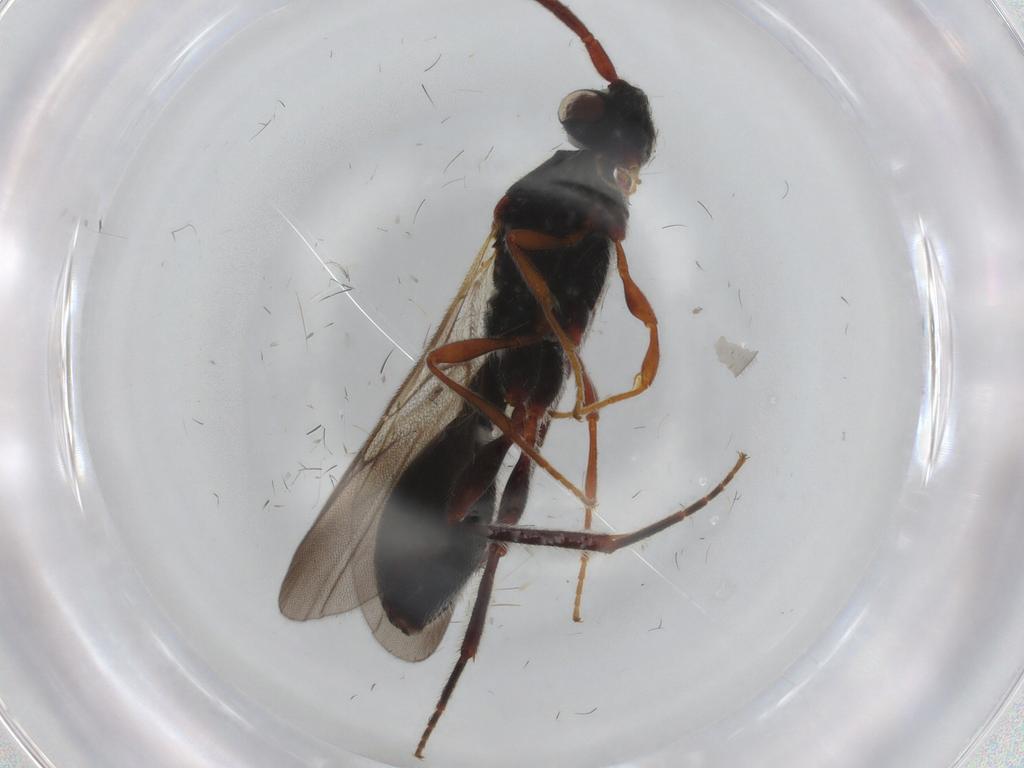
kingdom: Animalia
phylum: Arthropoda
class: Insecta
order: Hymenoptera
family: Diapriidae
